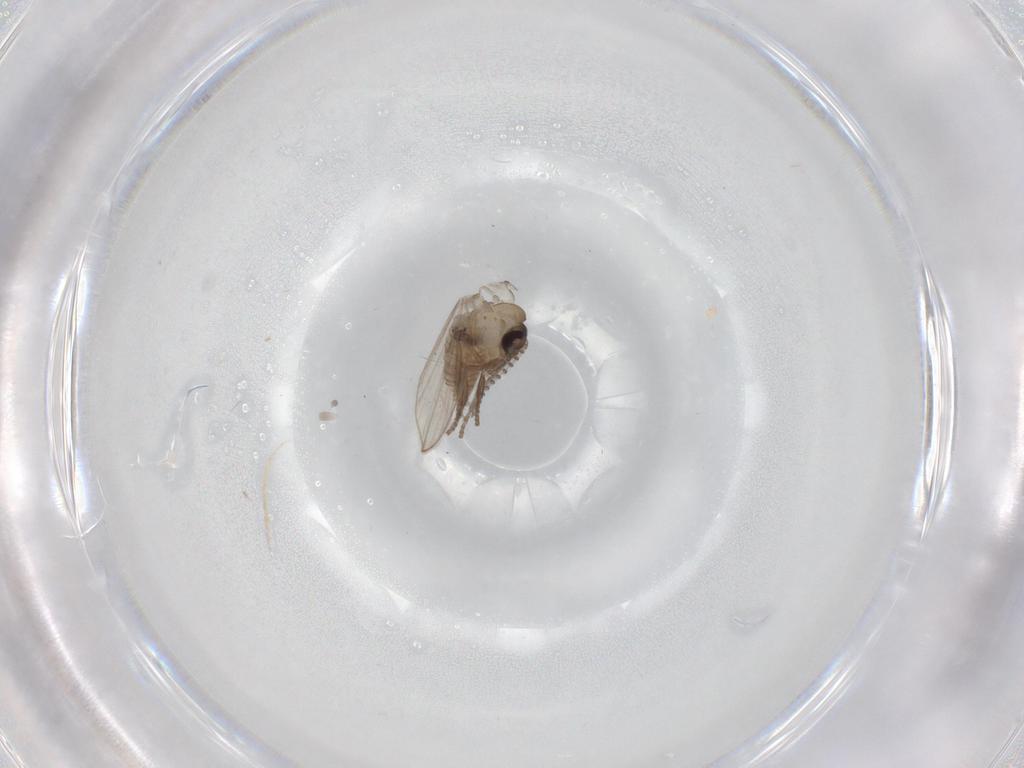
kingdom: Animalia
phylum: Arthropoda
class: Insecta
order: Diptera
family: Psychodidae
